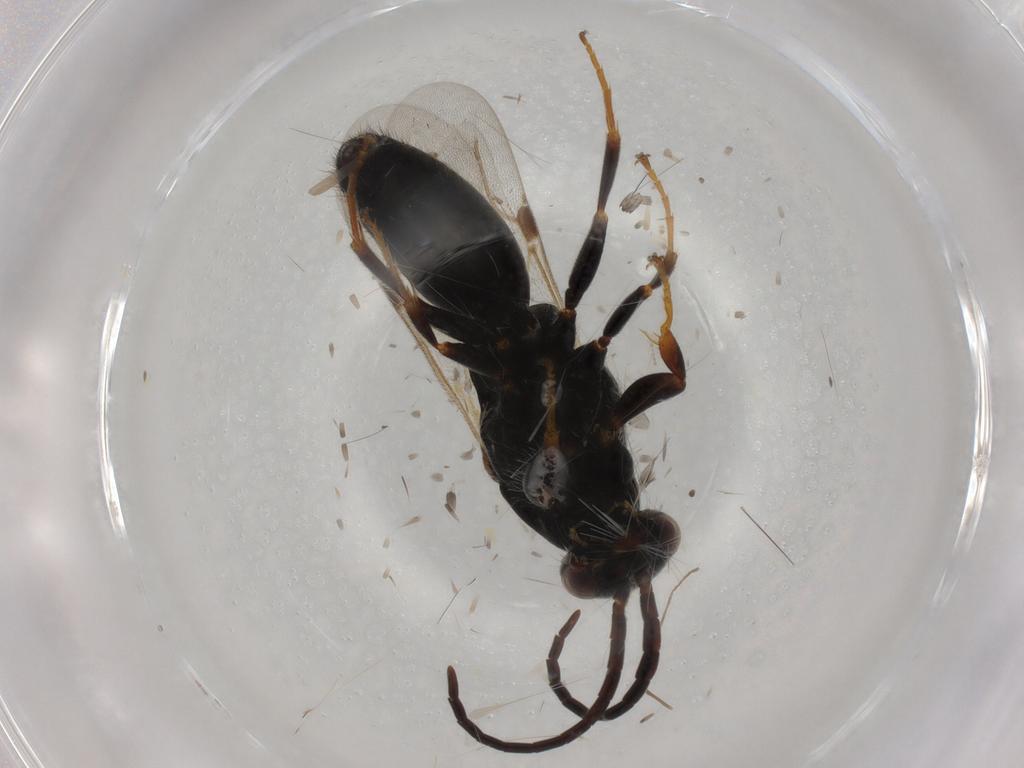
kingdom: Animalia
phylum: Arthropoda
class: Insecta
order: Hymenoptera
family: Bethylidae
